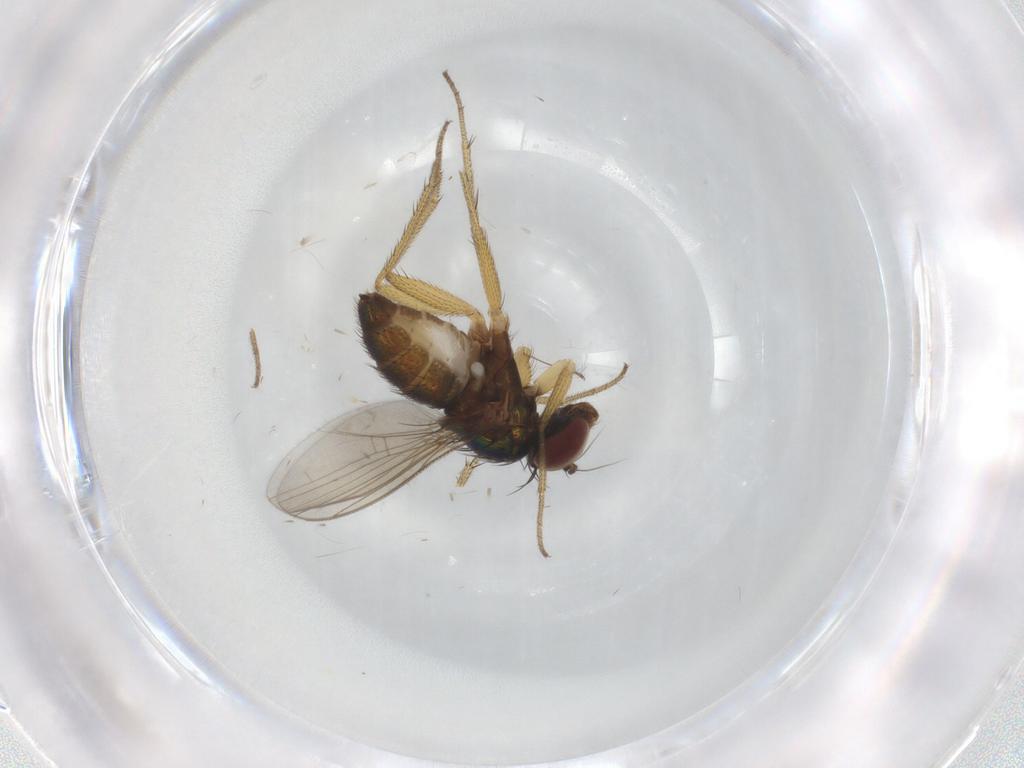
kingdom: Animalia
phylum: Arthropoda
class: Insecta
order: Diptera
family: Dolichopodidae
